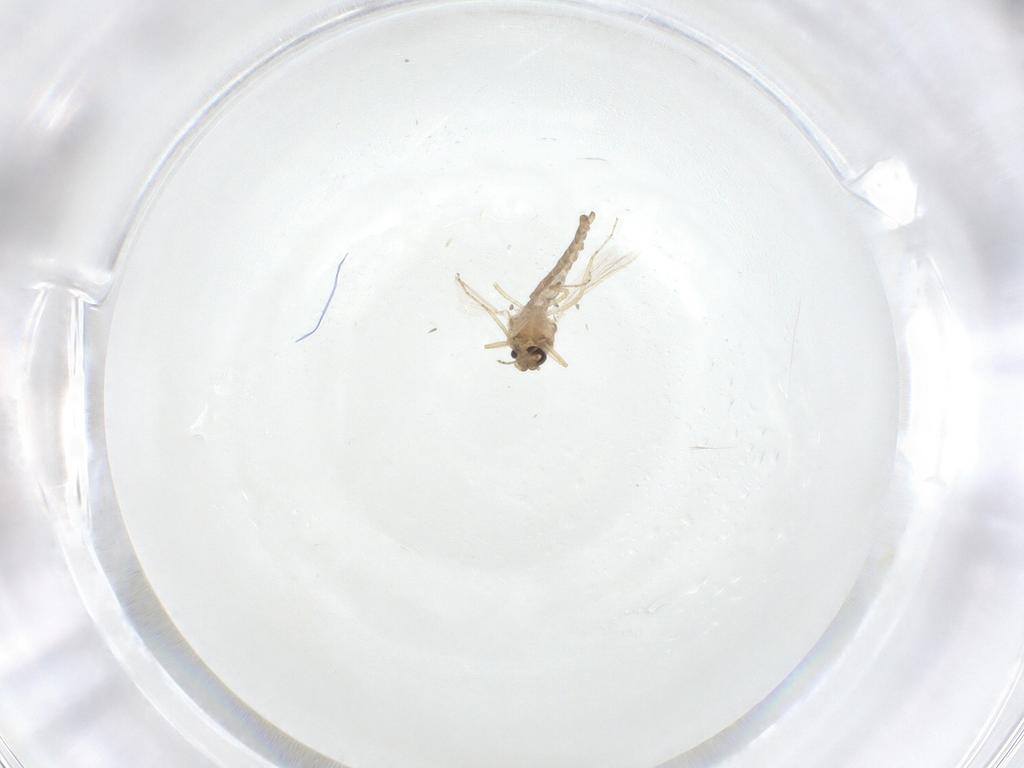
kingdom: Animalia
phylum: Arthropoda
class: Insecta
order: Diptera
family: Ceratopogonidae
